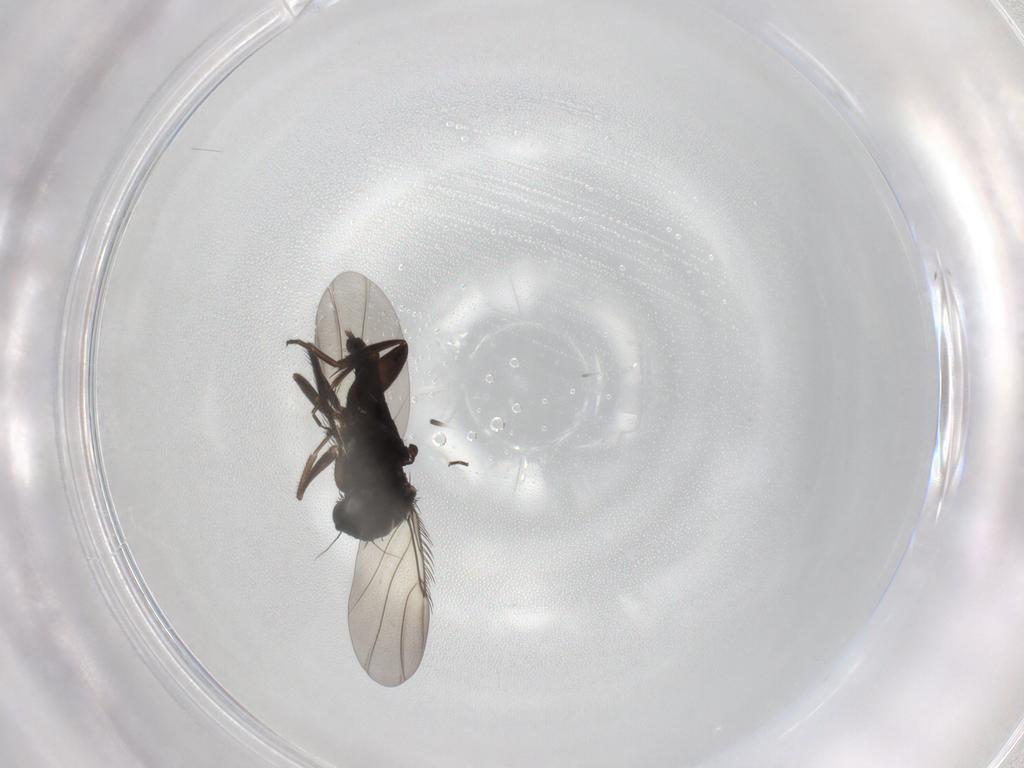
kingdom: Animalia
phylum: Arthropoda
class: Insecta
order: Diptera
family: Phoridae
